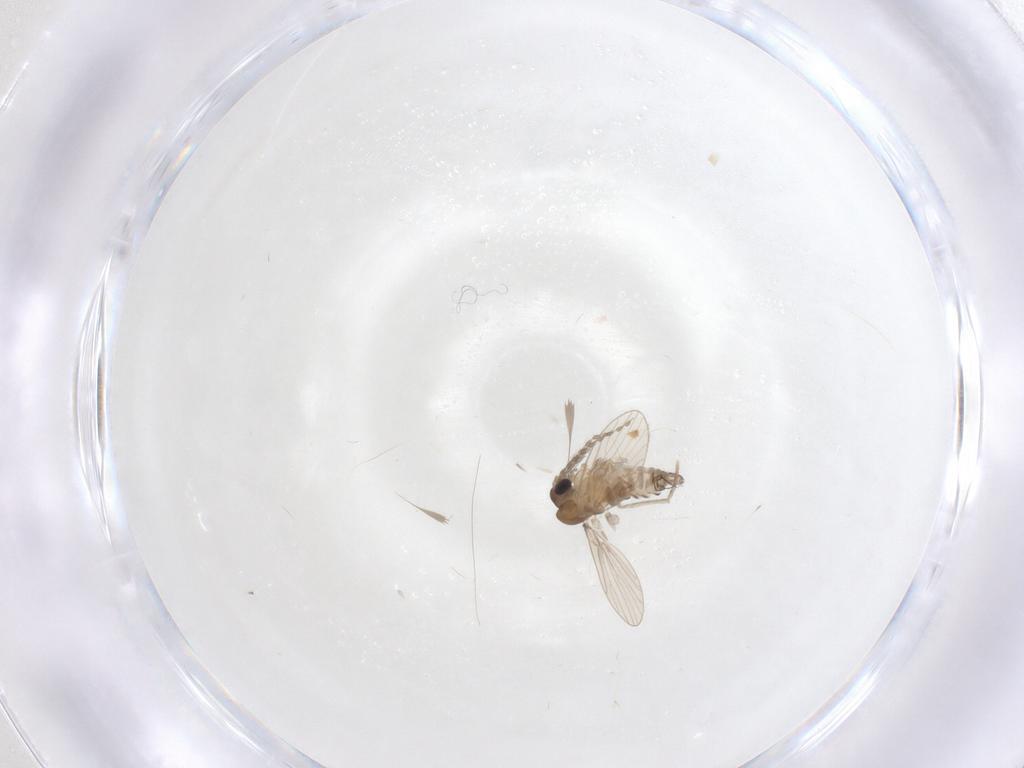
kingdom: Animalia
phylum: Arthropoda
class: Insecta
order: Diptera
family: Psychodidae
